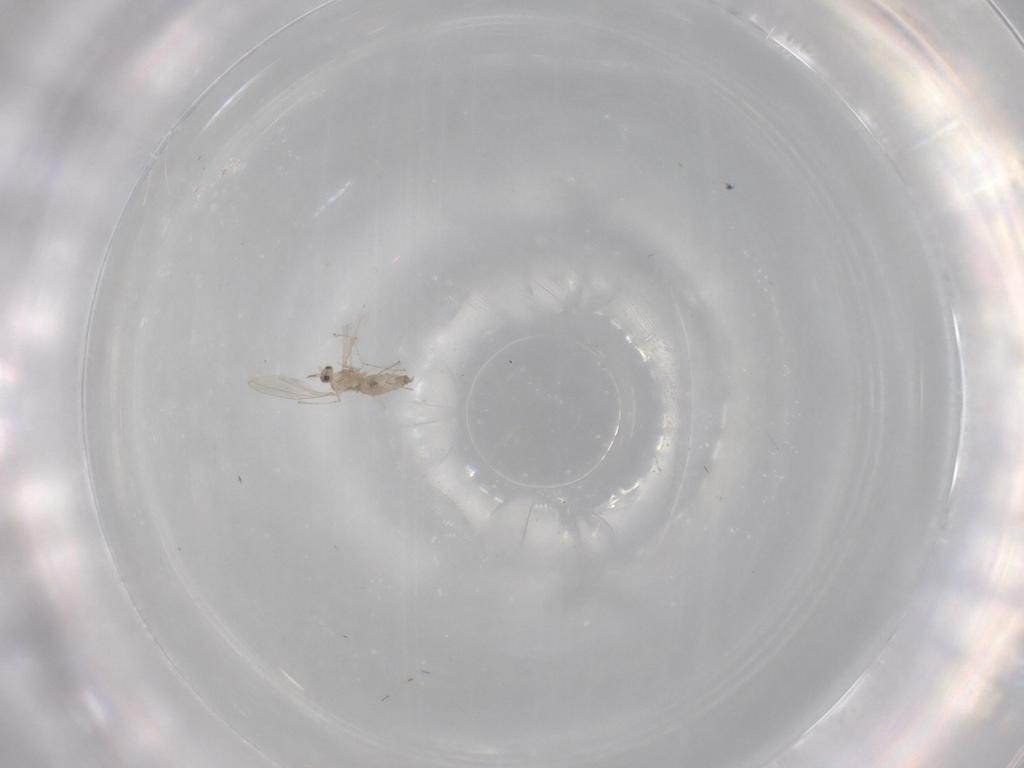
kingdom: Animalia
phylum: Arthropoda
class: Insecta
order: Diptera
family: Cecidomyiidae
